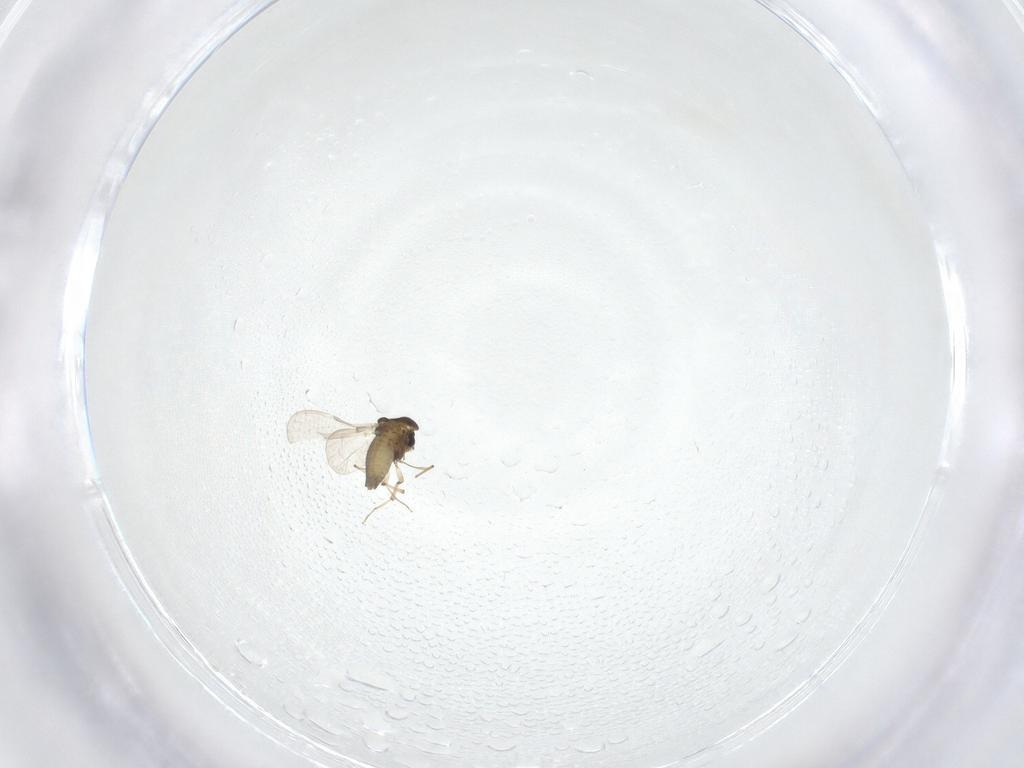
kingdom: Animalia
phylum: Arthropoda
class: Insecta
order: Diptera
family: Chironomidae
